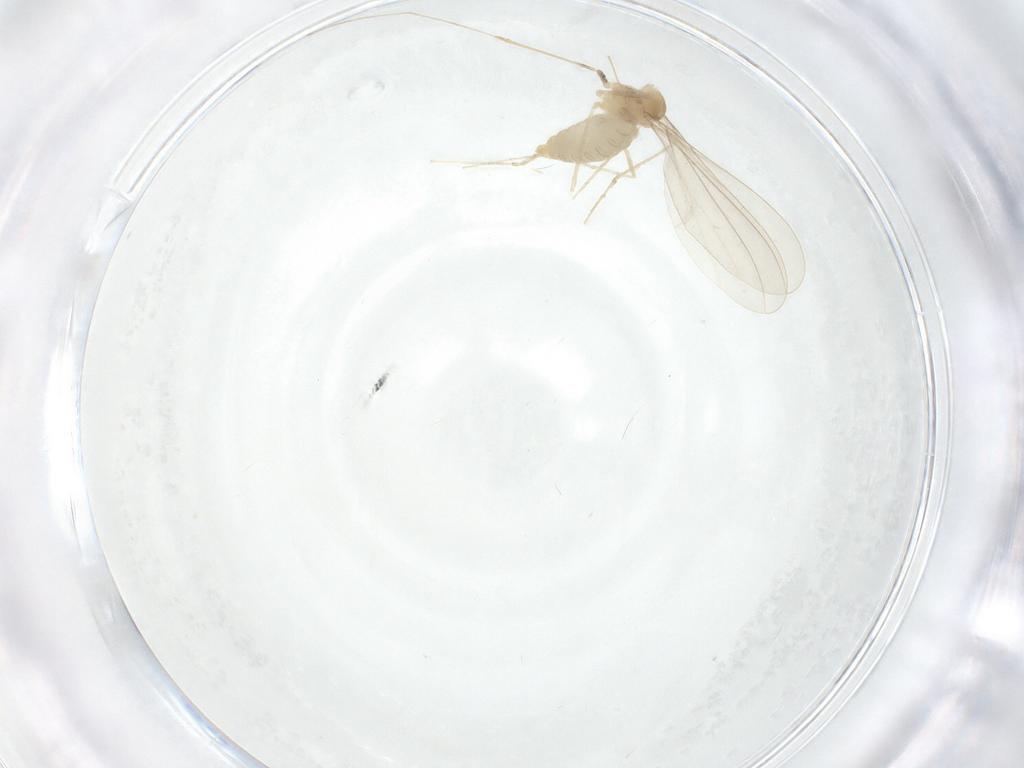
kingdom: Animalia
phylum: Arthropoda
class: Insecta
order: Diptera
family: Cecidomyiidae
